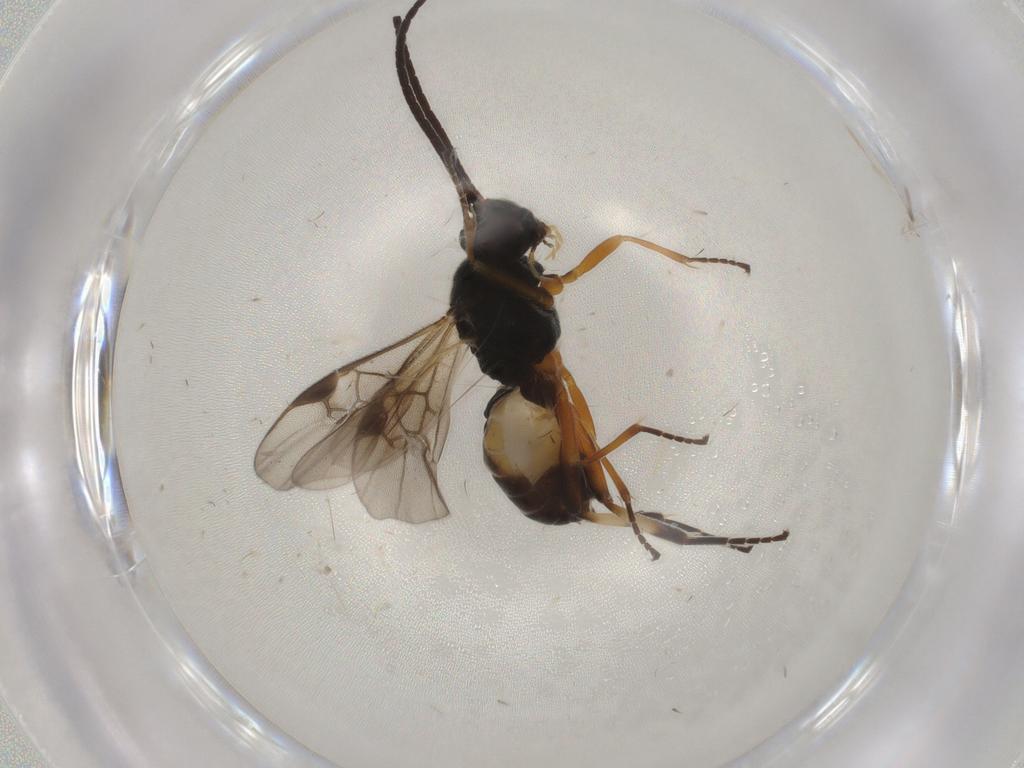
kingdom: Animalia
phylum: Arthropoda
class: Insecta
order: Hymenoptera
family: Braconidae
